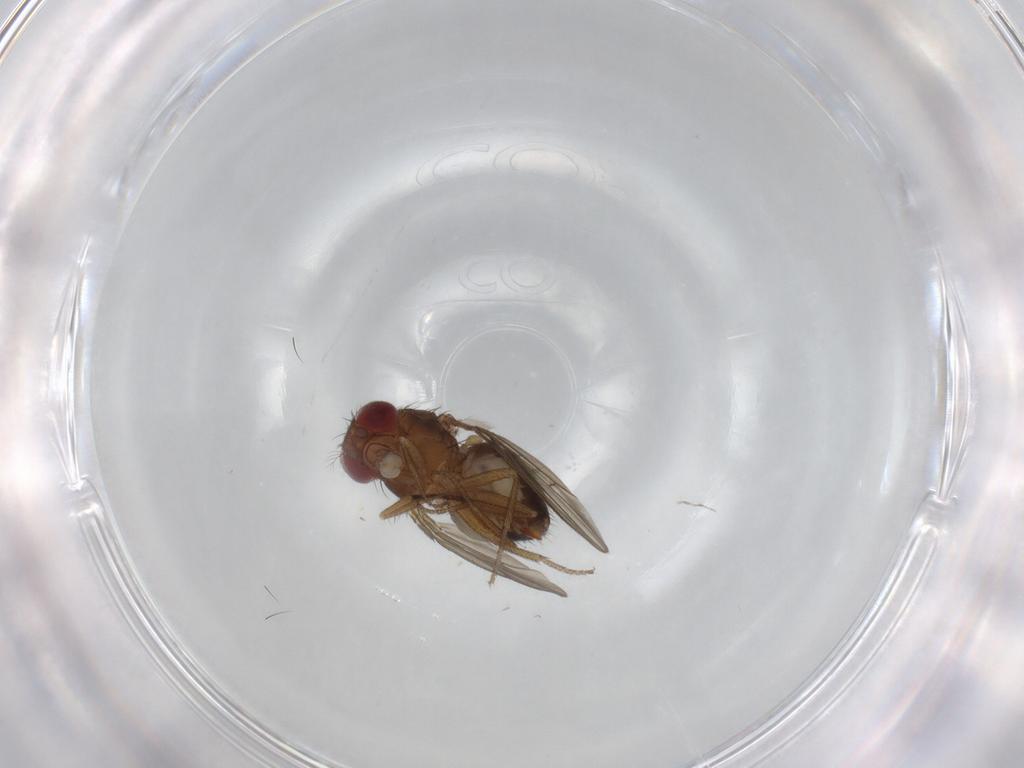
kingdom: Animalia
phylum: Arthropoda
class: Insecta
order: Diptera
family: Drosophilidae
